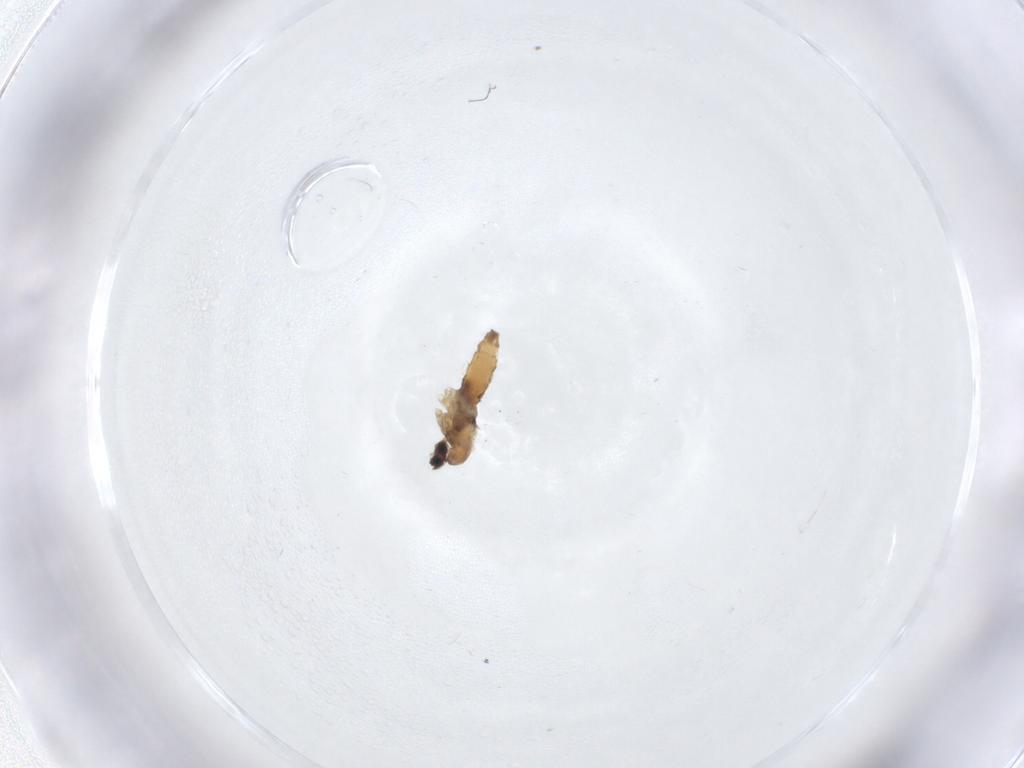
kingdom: Animalia
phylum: Arthropoda
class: Insecta
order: Diptera
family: Cecidomyiidae
